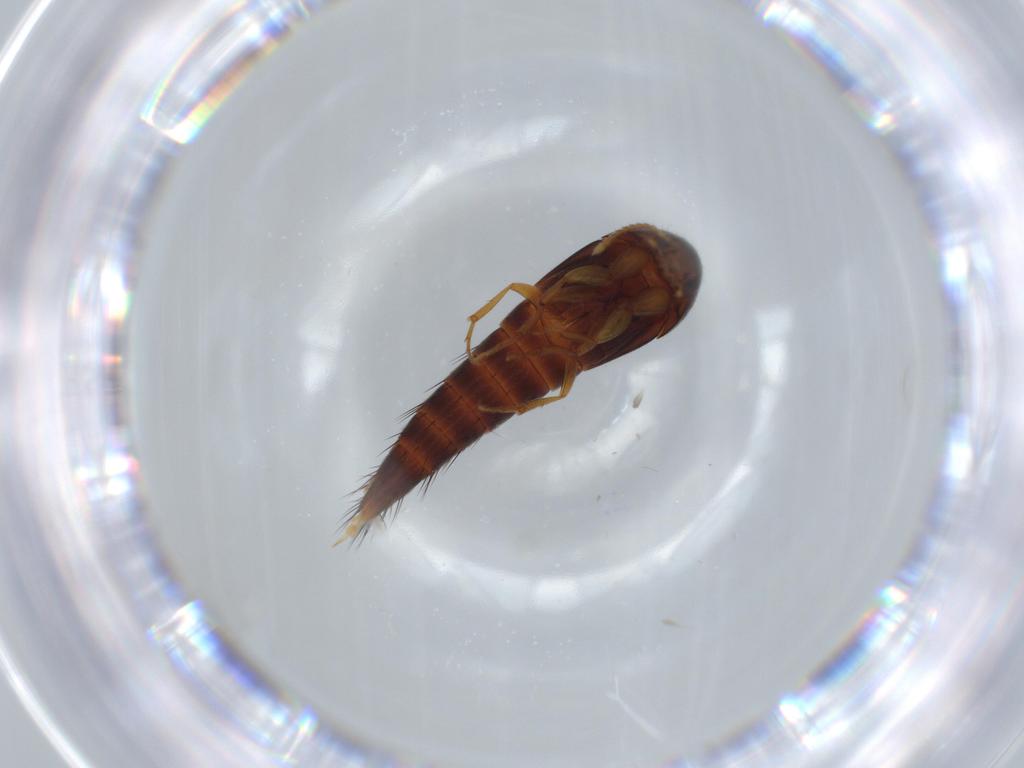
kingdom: Animalia
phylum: Arthropoda
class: Insecta
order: Coleoptera
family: Staphylinidae
